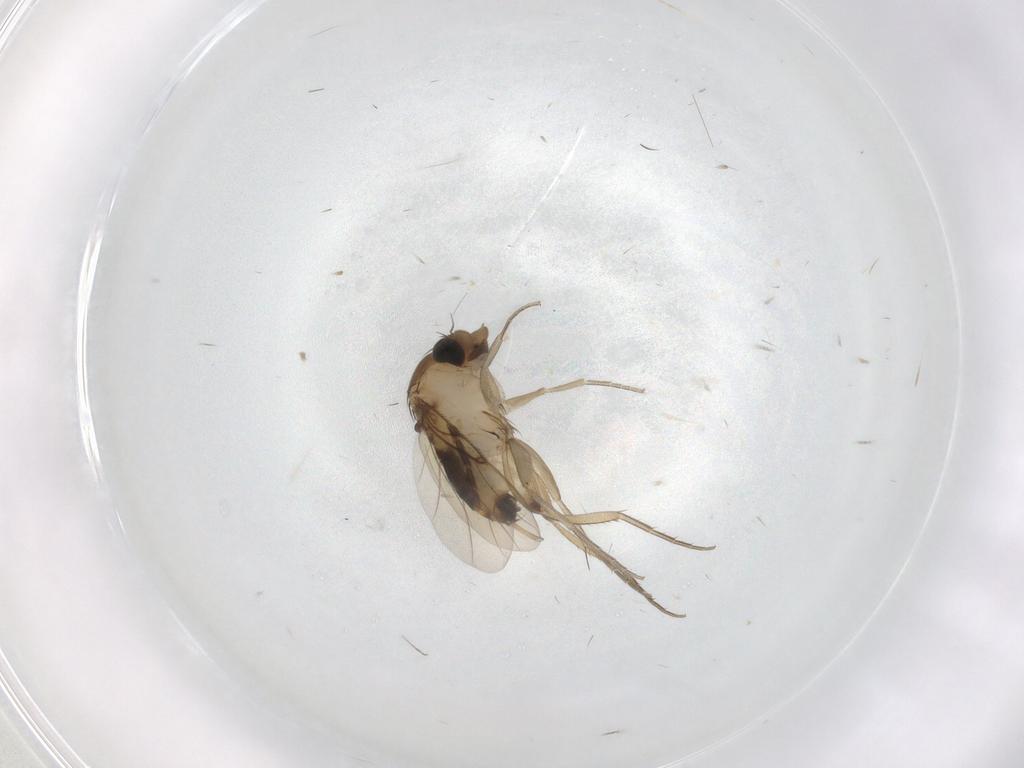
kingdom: Animalia
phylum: Arthropoda
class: Insecta
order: Diptera
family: Phoridae
